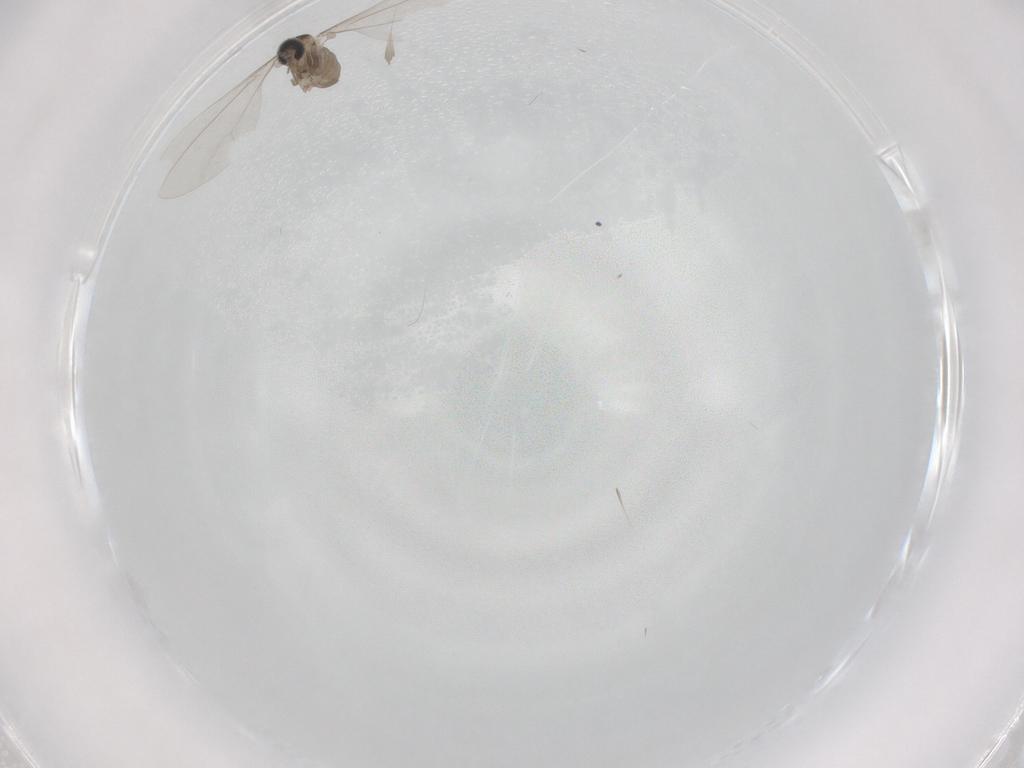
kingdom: Animalia
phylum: Arthropoda
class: Insecta
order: Diptera
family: Cecidomyiidae
